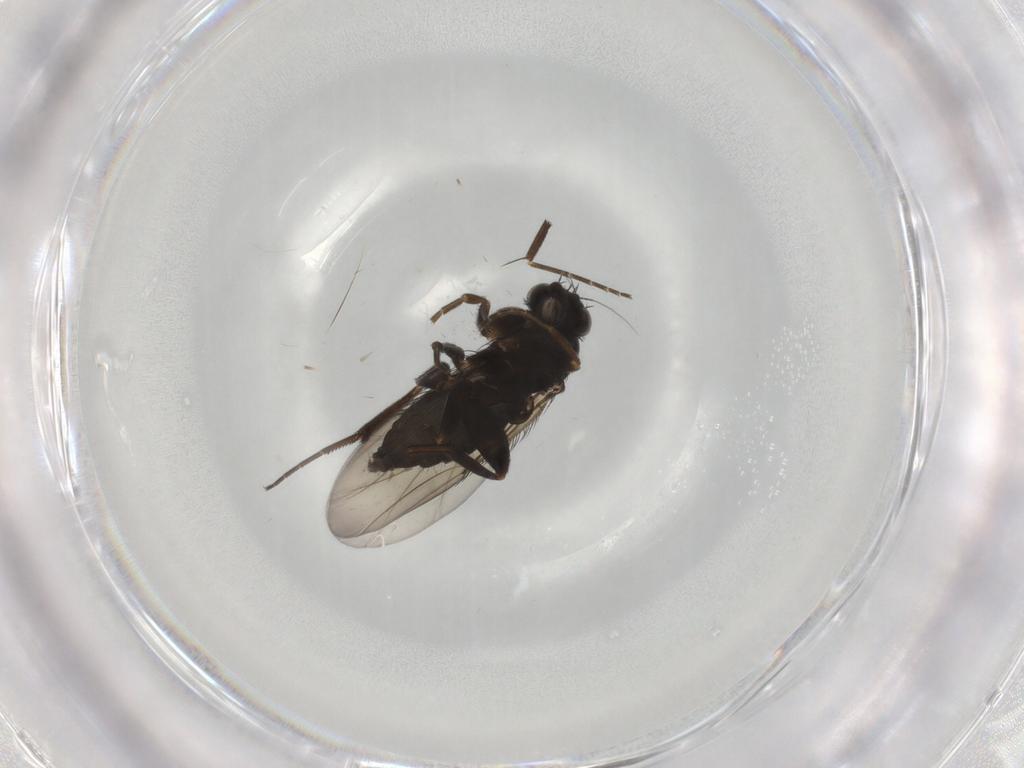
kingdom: Animalia
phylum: Arthropoda
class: Insecta
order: Diptera
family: Phoridae
